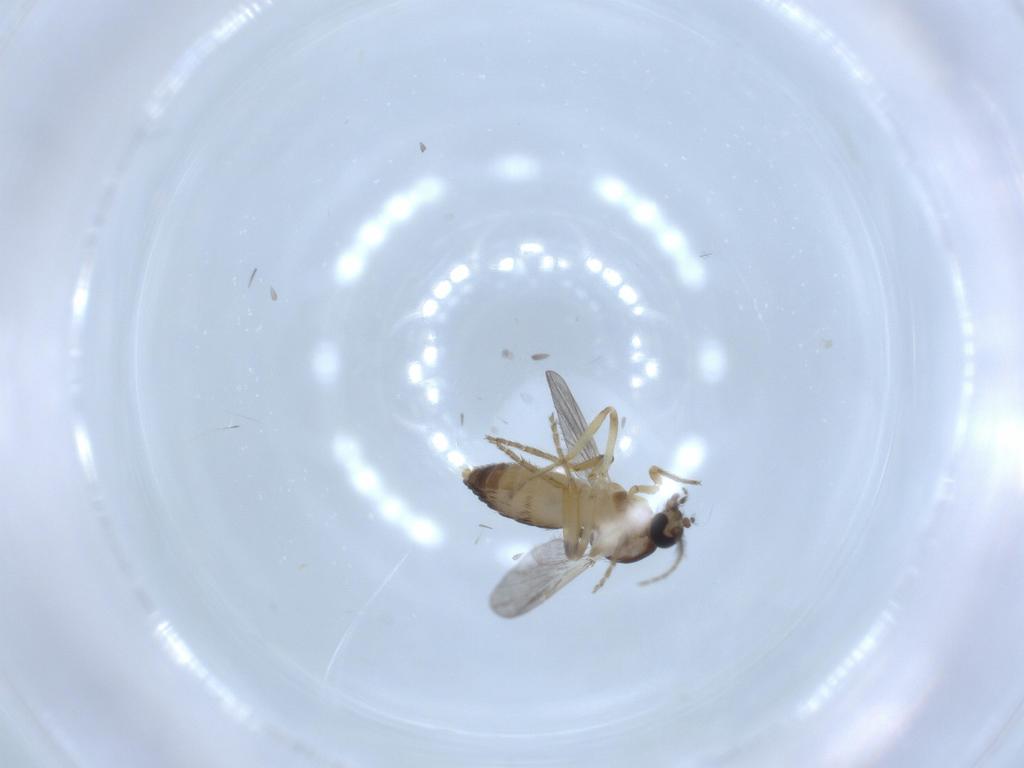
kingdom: Animalia
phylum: Arthropoda
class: Insecta
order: Diptera
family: Ceratopogonidae
